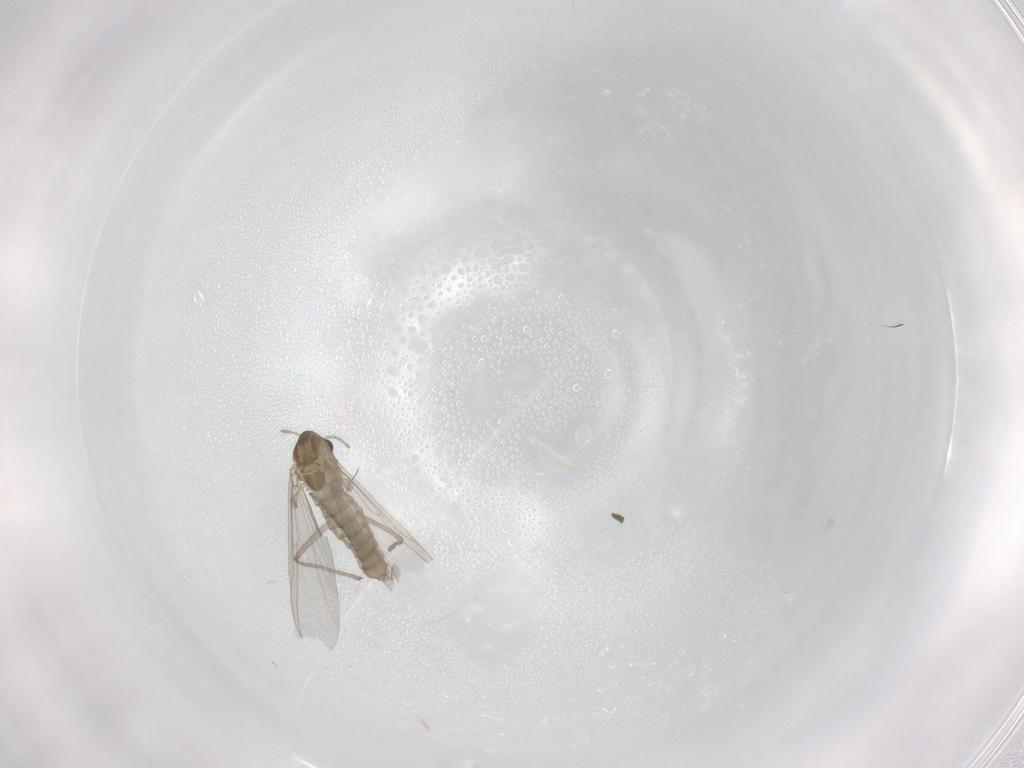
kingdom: Animalia
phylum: Arthropoda
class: Insecta
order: Diptera
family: Chironomidae
